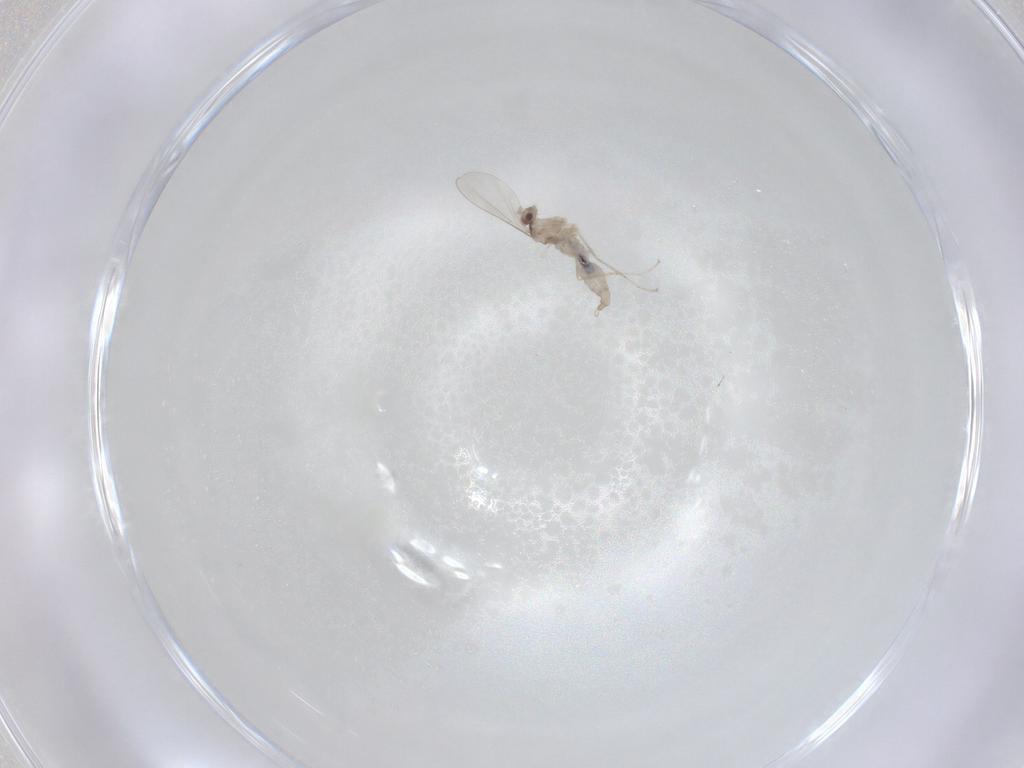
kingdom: Animalia
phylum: Arthropoda
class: Insecta
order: Diptera
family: Cecidomyiidae
